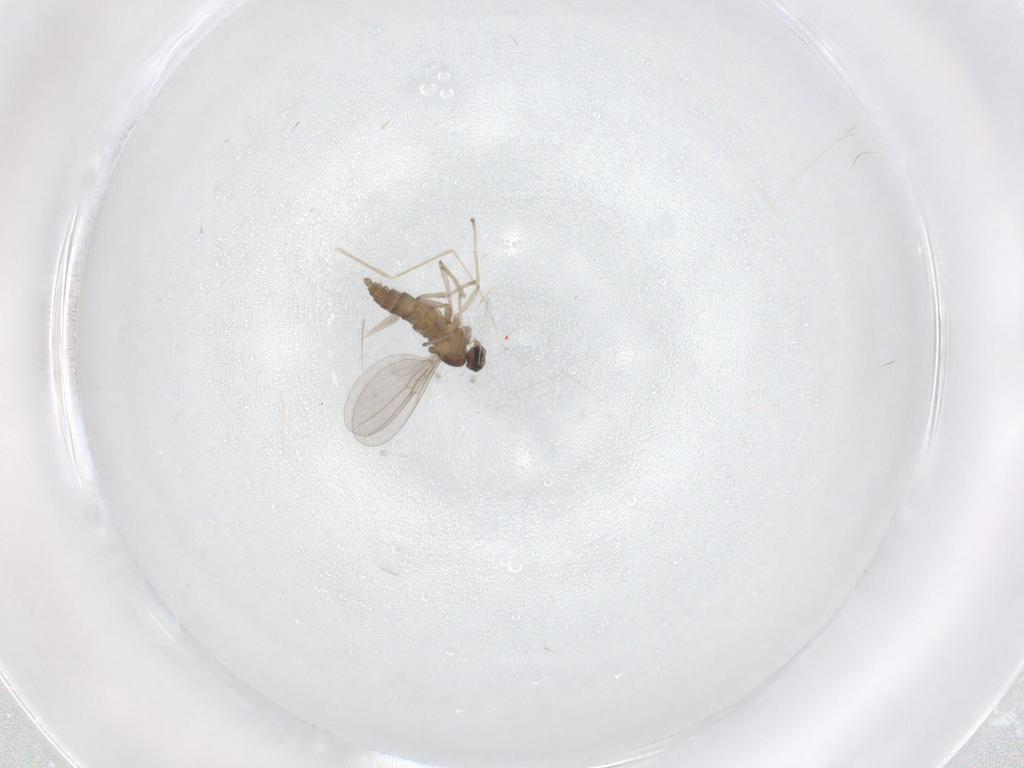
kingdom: Animalia
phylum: Arthropoda
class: Insecta
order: Diptera
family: Cecidomyiidae
